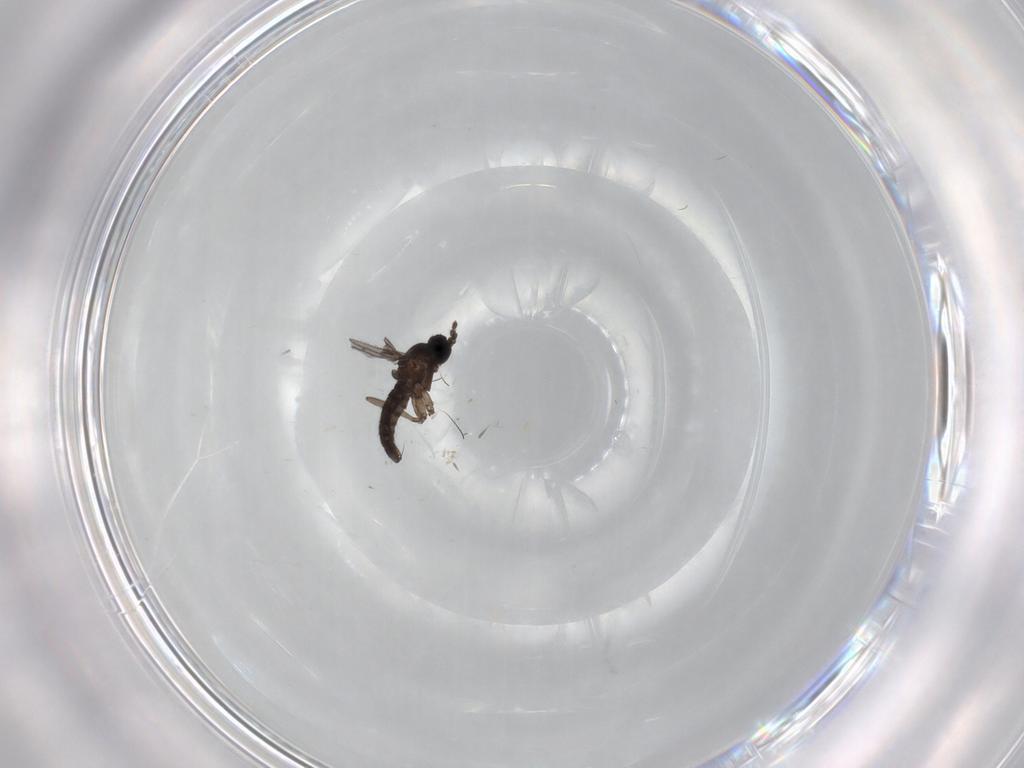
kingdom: Animalia
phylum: Arthropoda
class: Insecta
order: Diptera
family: Chironomidae
